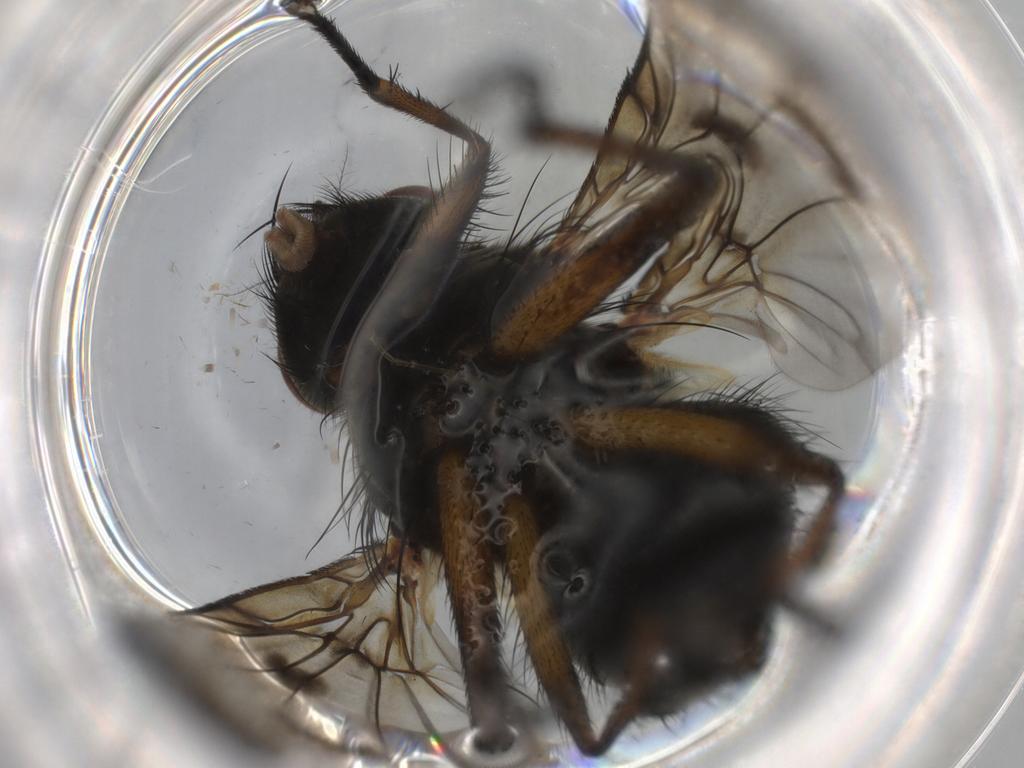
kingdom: Animalia
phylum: Arthropoda
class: Insecta
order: Diptera
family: Muscidae
